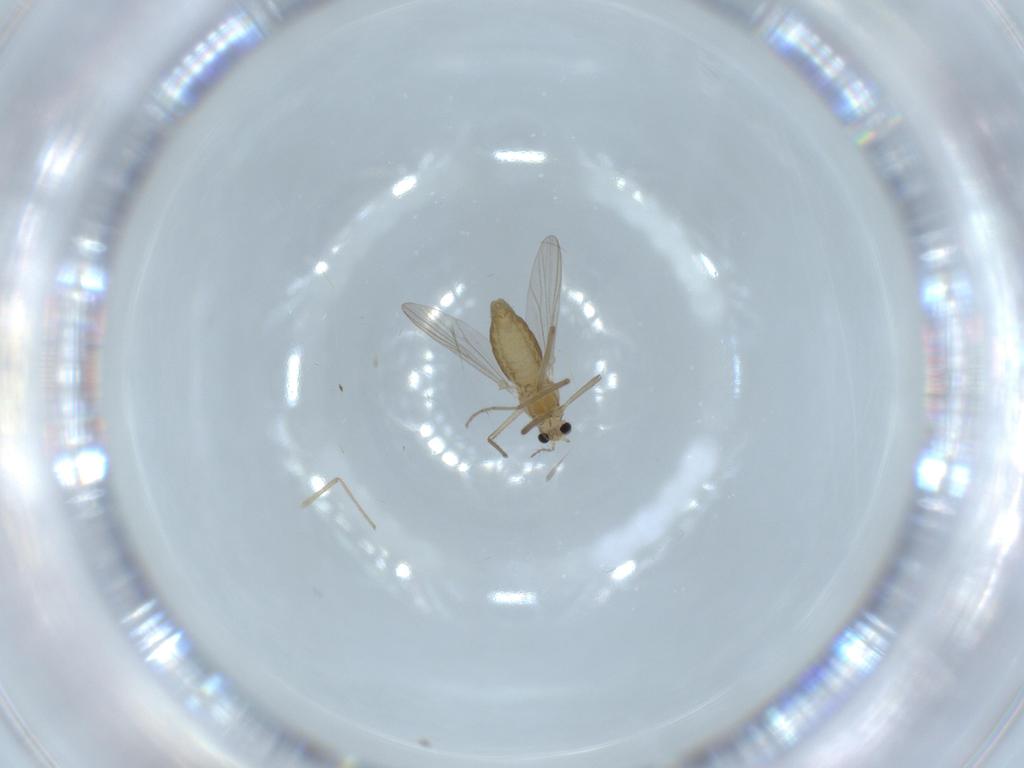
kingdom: Animalia
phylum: Arthropoda
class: Insecta
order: Diptera
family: Chironomidae
